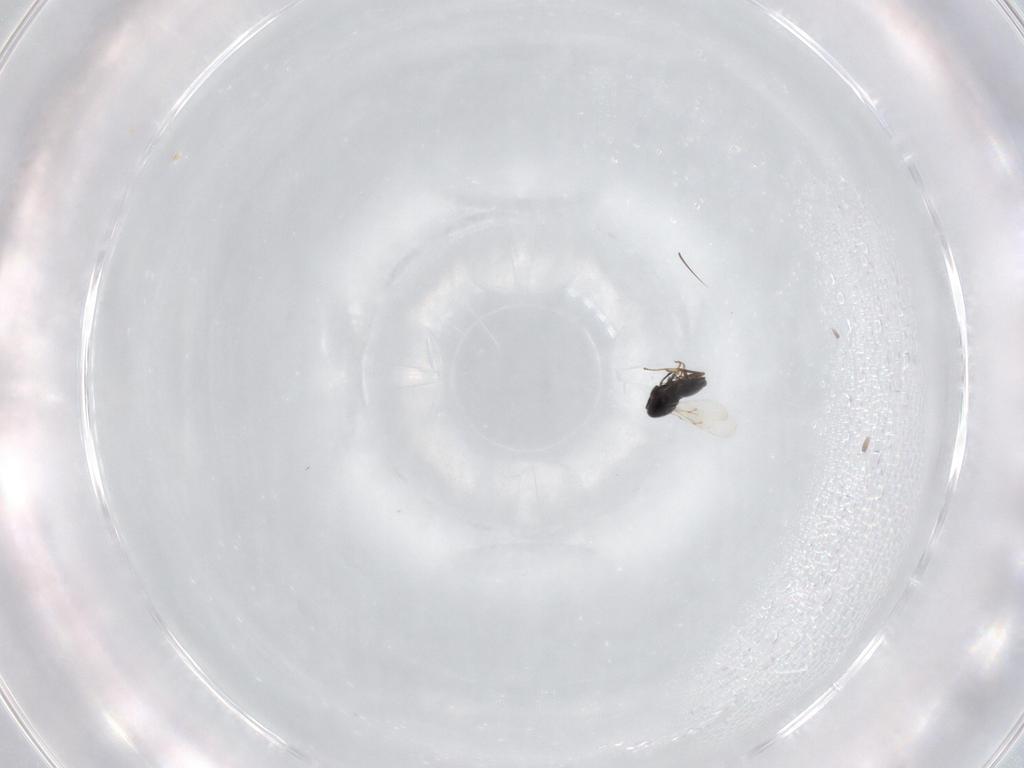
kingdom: Animalia
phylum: Arthropoda
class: Insecta
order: Hymenoptera
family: Scelionidae
